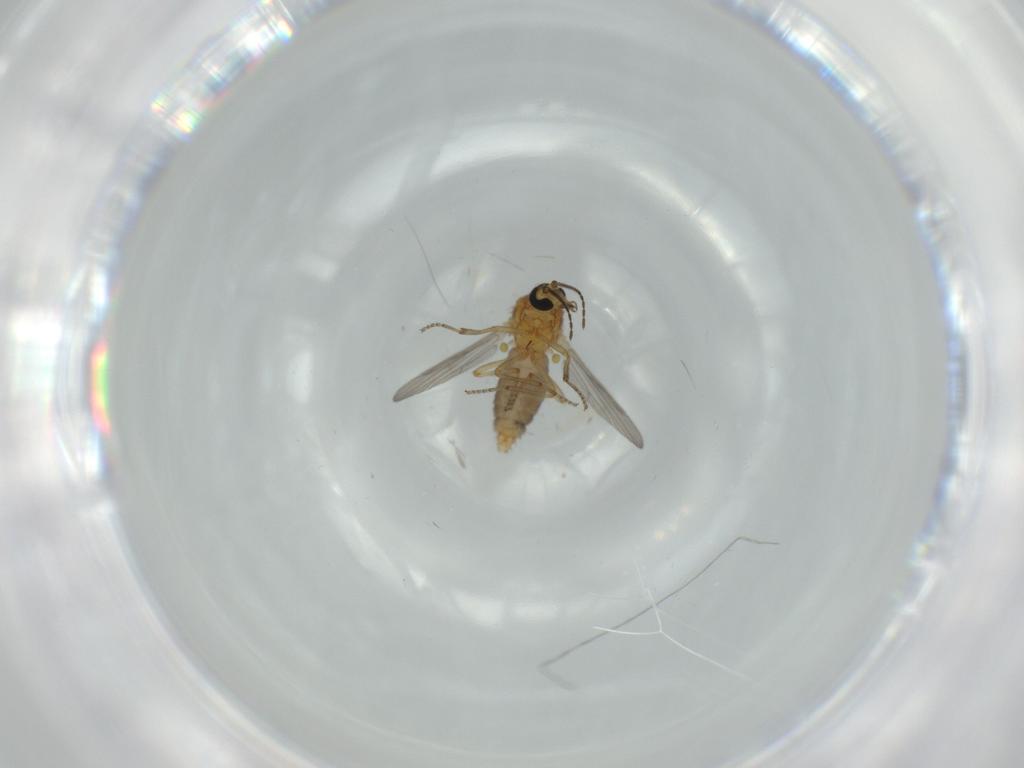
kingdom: Animalia
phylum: Arthropoda
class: Insecta
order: Diptera
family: Ceratopogonidae
